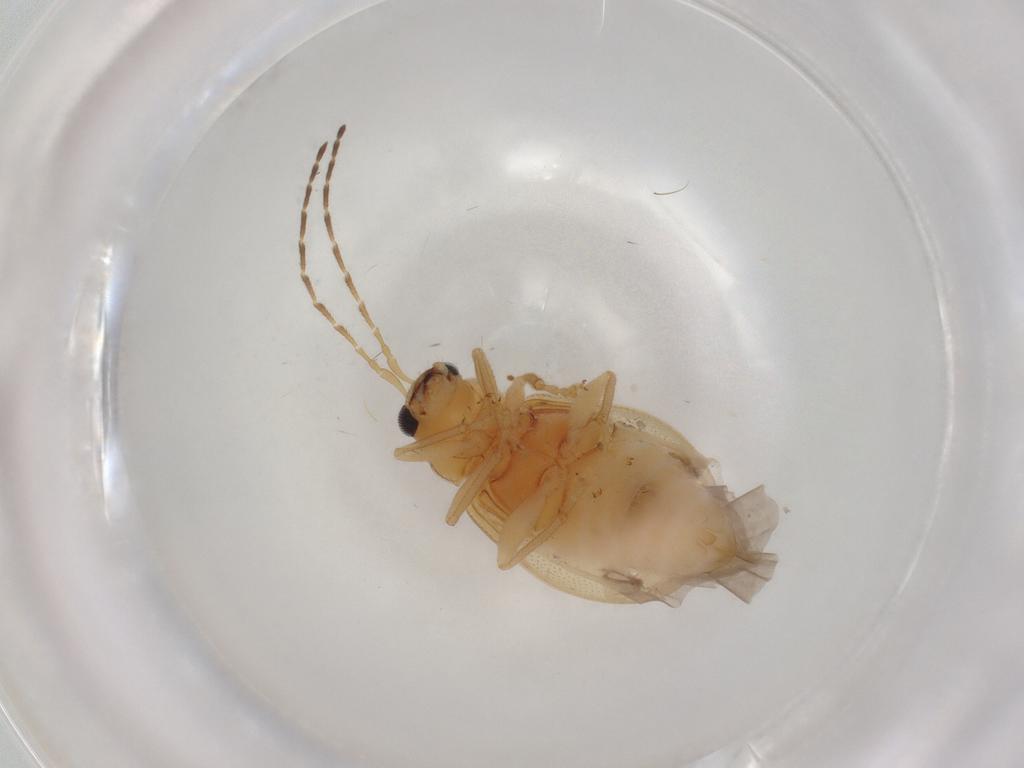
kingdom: Animalia
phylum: Arthropoda
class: Insecta
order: Coleoptera
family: Chrysomelidae
